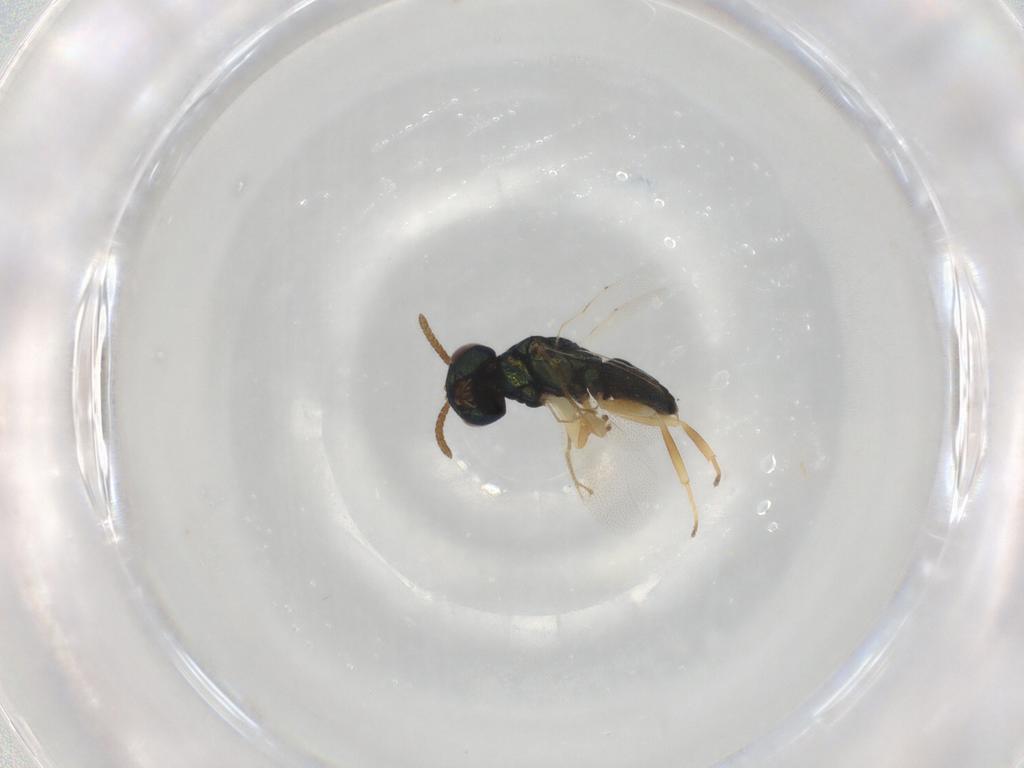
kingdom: Animalia
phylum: Arthropoda
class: Insecta
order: Hymenoptera
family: Pteromalidae
